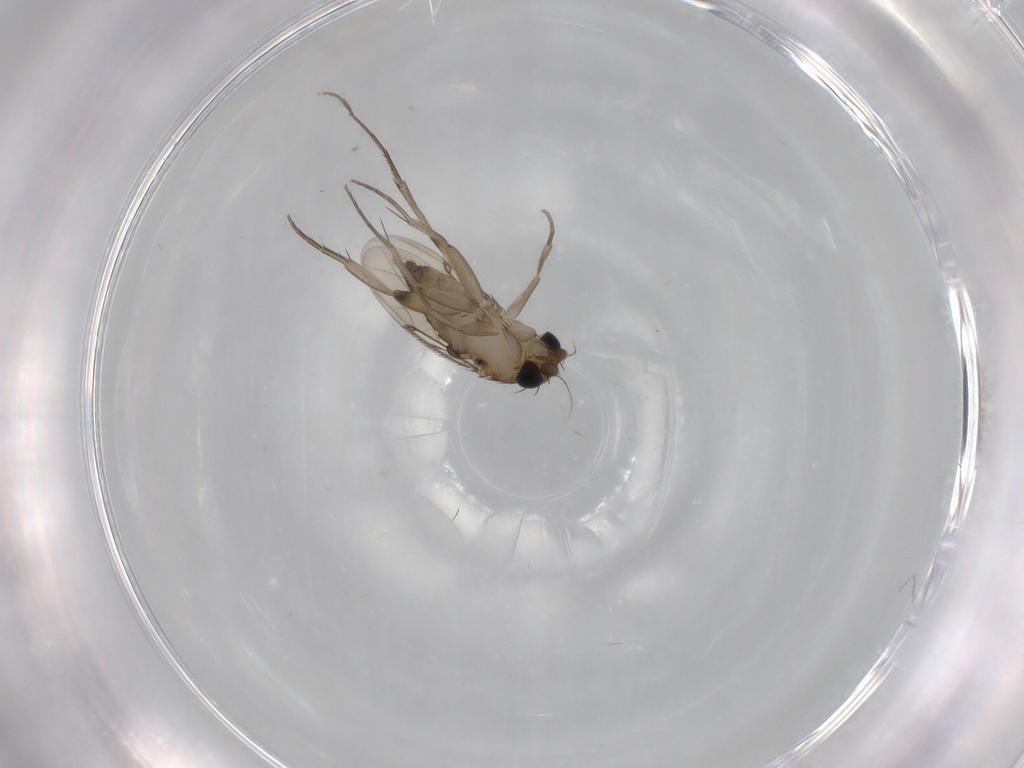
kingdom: Animalia
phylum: Arthropoda
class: Insecta
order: Diptera
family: Phoridae
